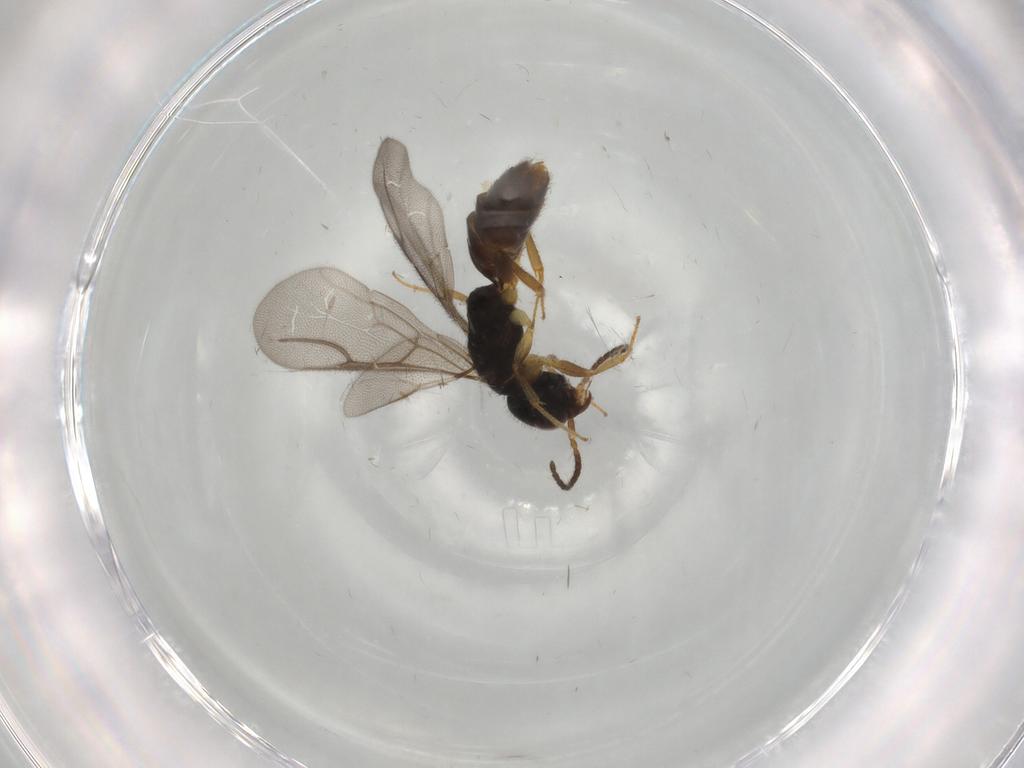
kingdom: Animalia
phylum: Arthropoda
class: Insecta
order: Hymenoptera
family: Bethylidae
